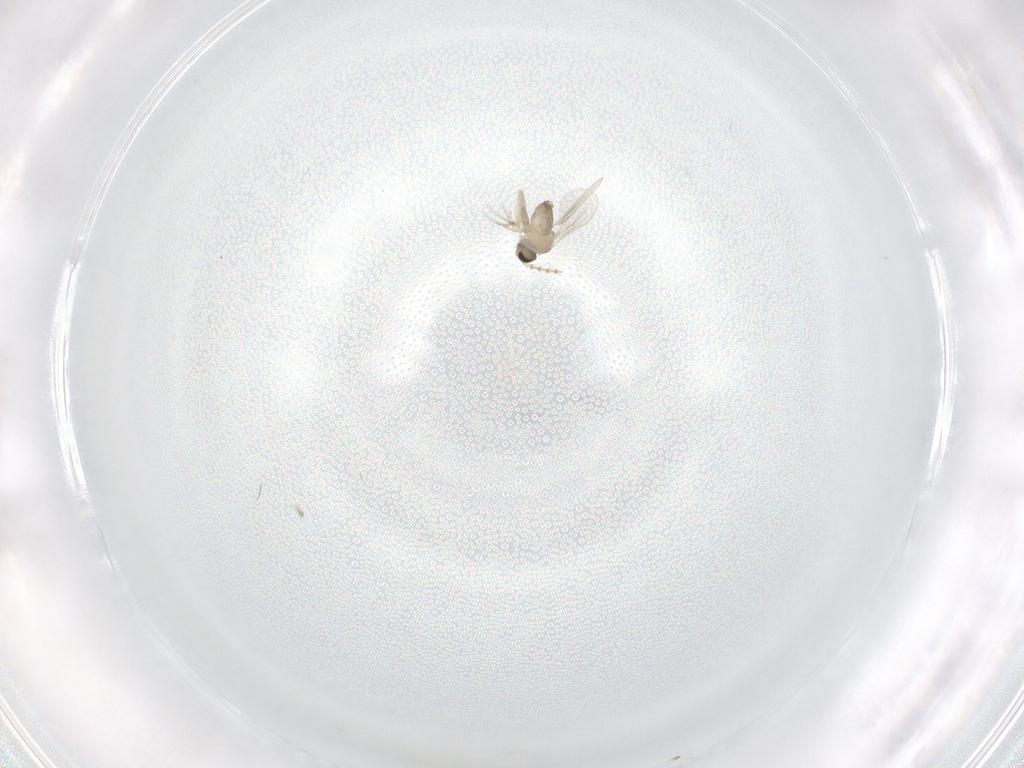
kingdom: Animalia
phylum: Arthropoda
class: Insecta
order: Diptera
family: Cecidomyiidae
